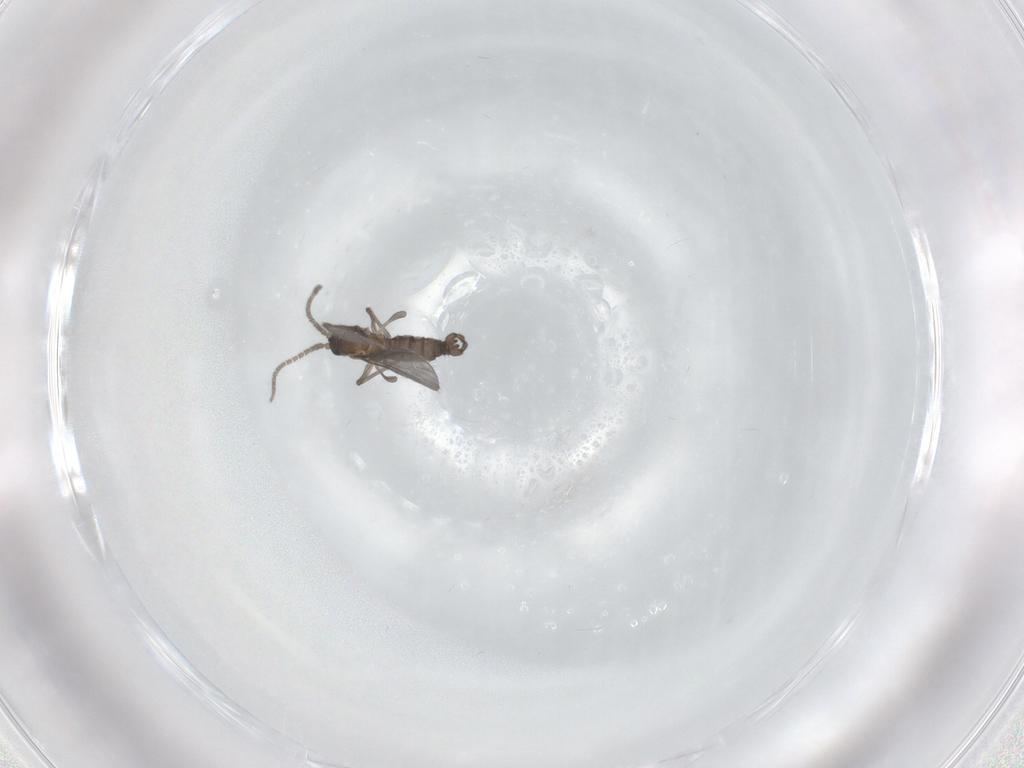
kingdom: Animalia
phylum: Arthropoda
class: Insecta
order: Diptera
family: Sciaridae
